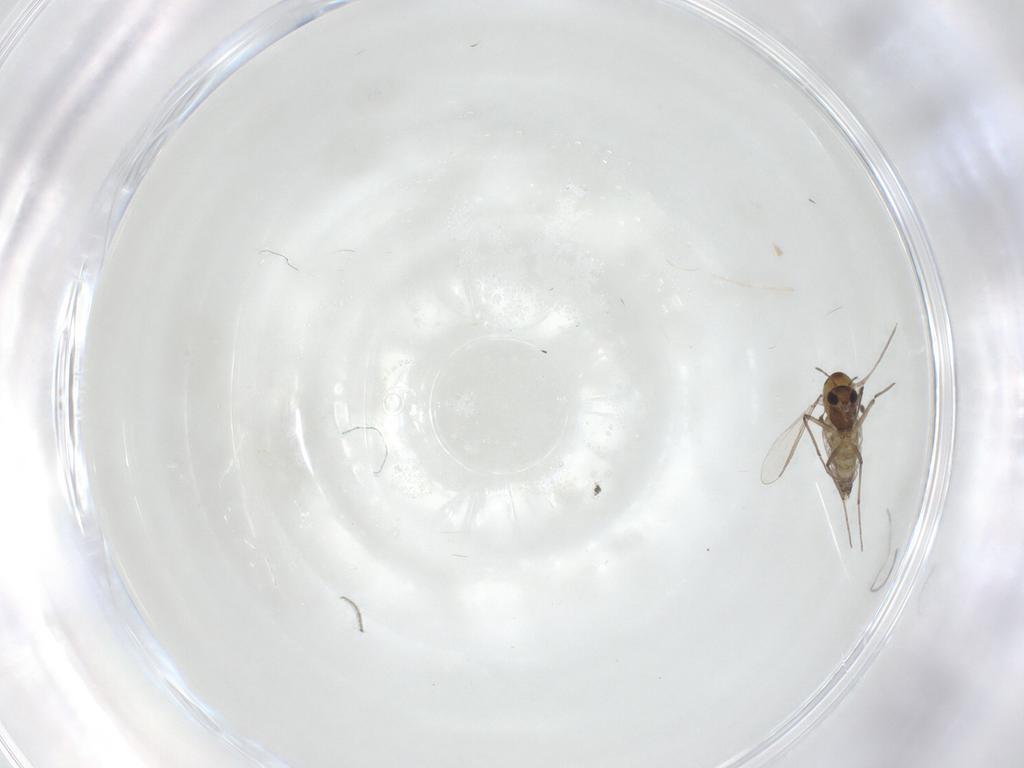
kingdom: Animalia
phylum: Arthropoda
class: Insecta
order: Diptera
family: Chironomidae
